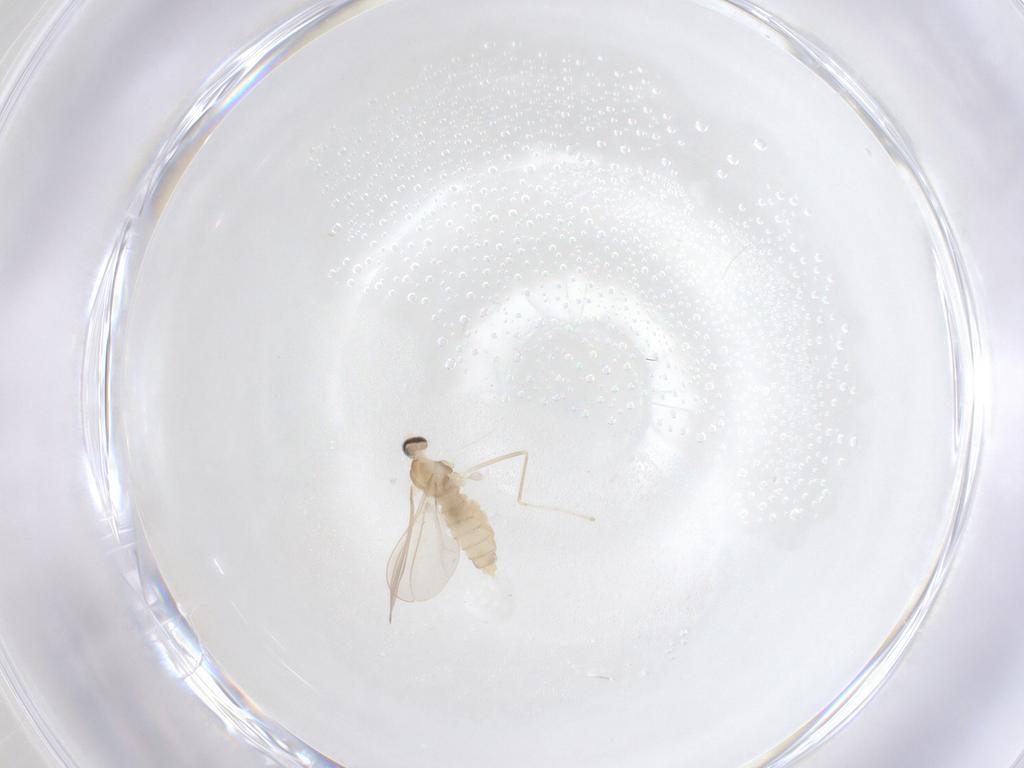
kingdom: Animalia
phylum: Arthropoda
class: Insecta
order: Diptera
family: Cecidomyiidae
